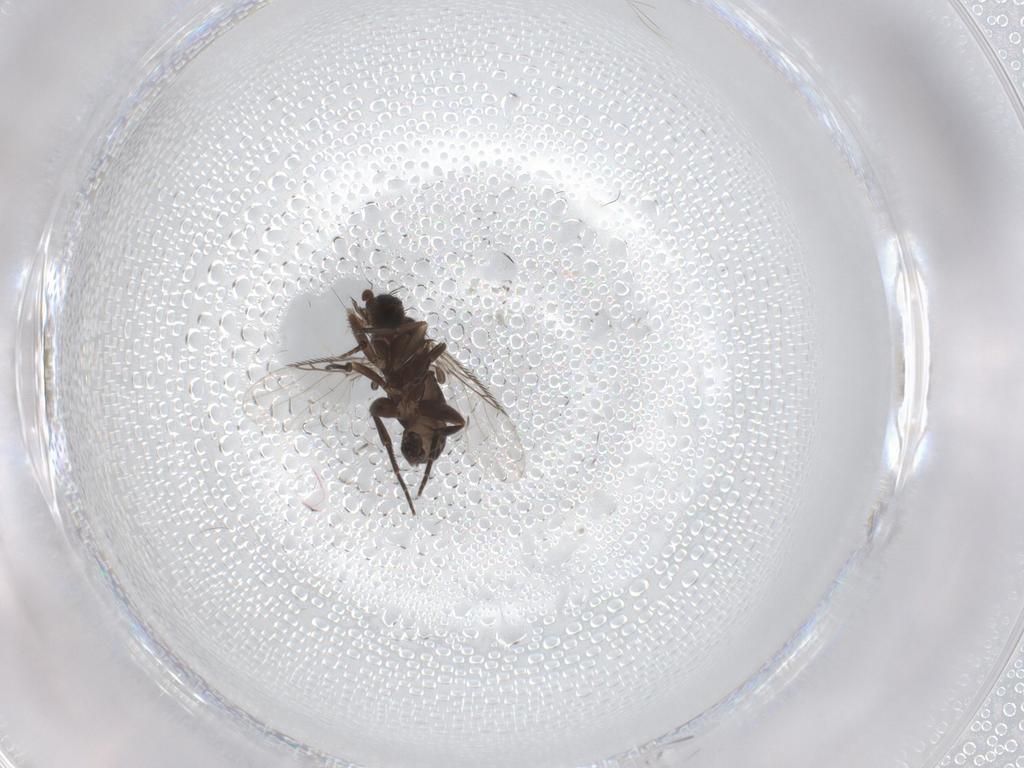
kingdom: Animalia
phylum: Arthropoda
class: Insecta
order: Diptera
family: Phoridae
